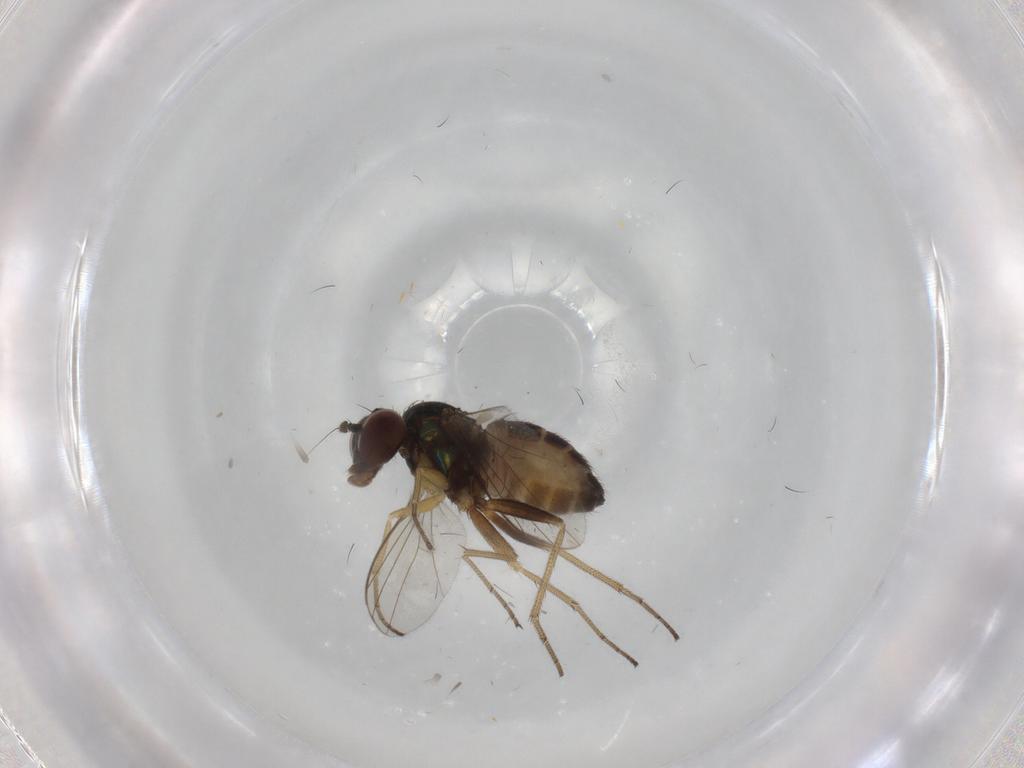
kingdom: Animalia
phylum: Arthropoda
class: Insecta
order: Diptera
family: Dolichopodidae
